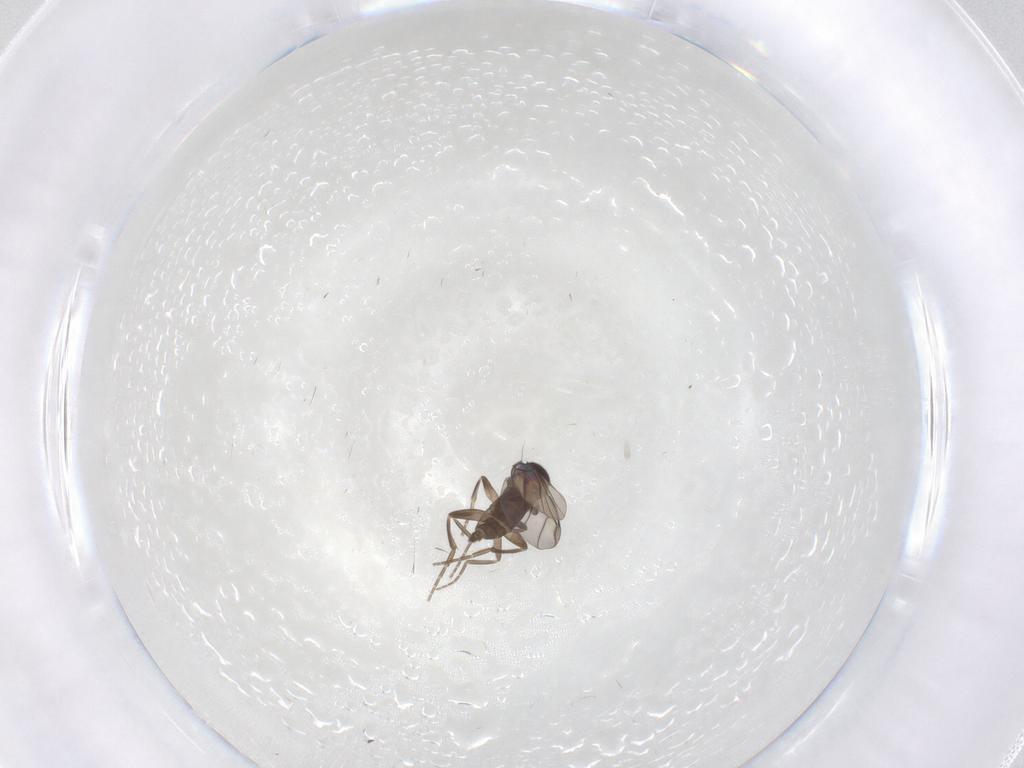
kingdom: Animalia
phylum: Arthropoda
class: Insecta
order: Diptera
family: Phoridae
